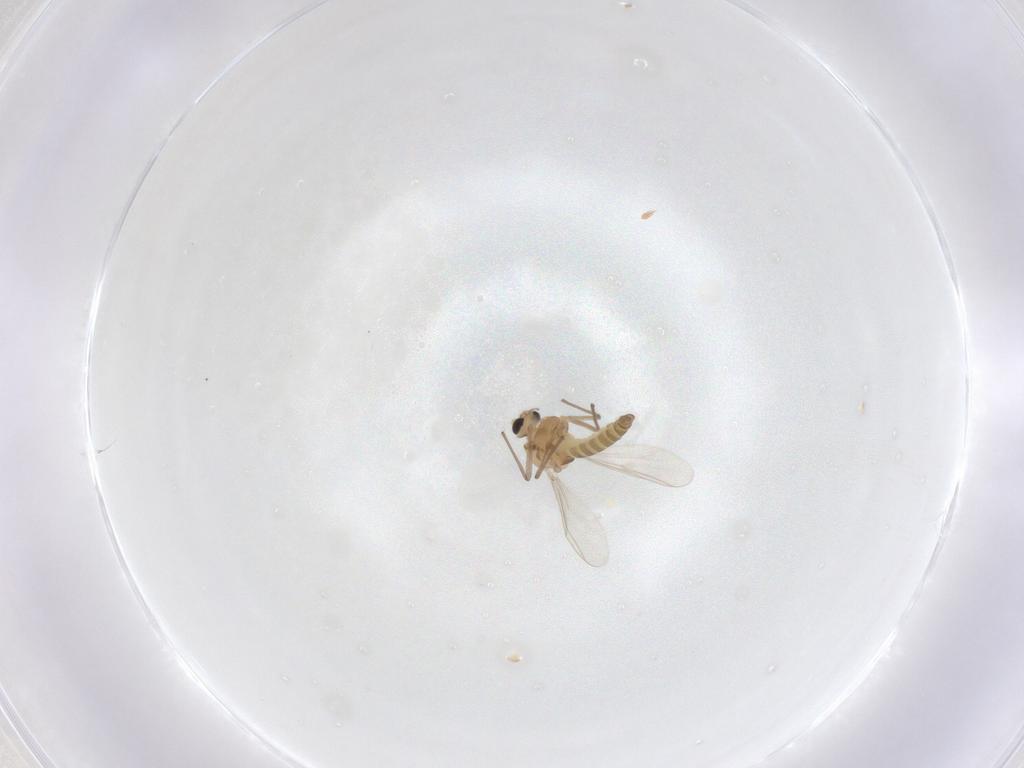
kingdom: Animalia
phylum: Arthropoda
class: Insecta
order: Diptera
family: Chironomidae
